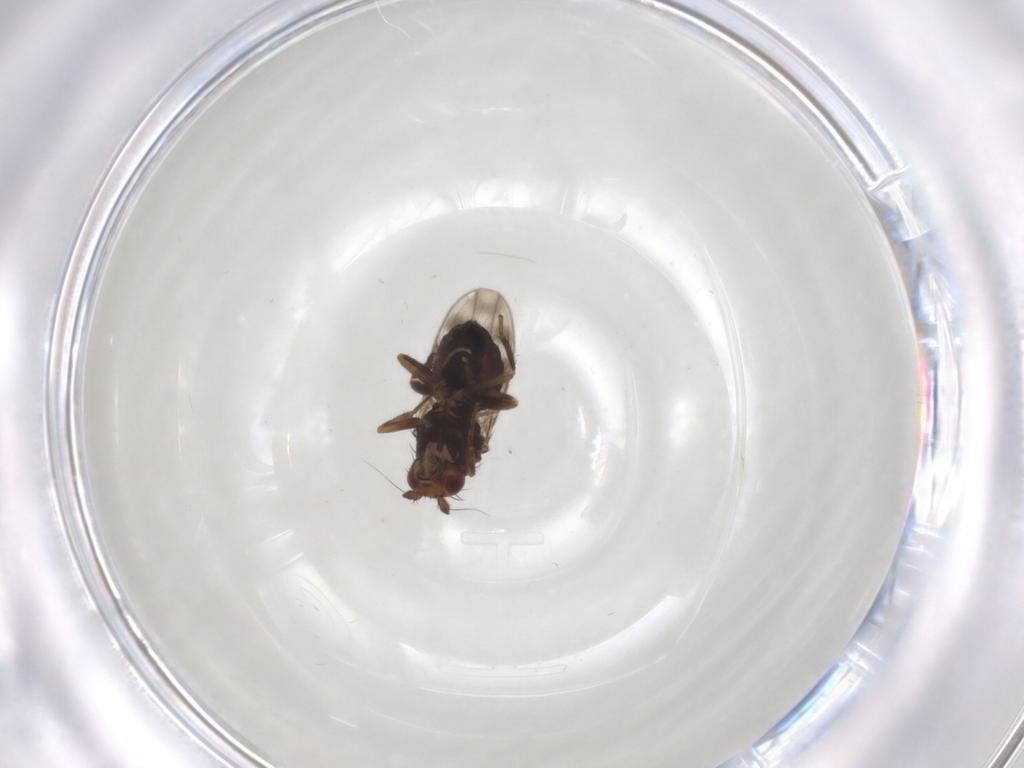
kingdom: Animalia
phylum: Arthropoda
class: Insecta
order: Diptera
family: Sphaeroceridae
